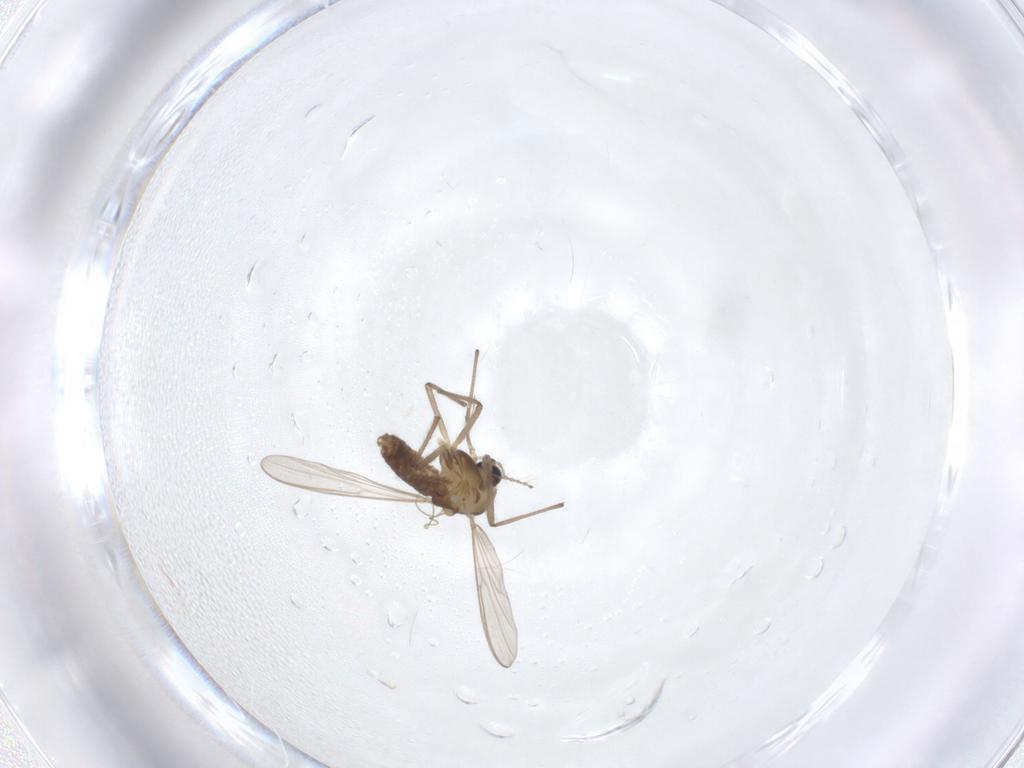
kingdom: Animalia
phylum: Arthropoda
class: Insecta
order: Diptera
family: Chironomidae
